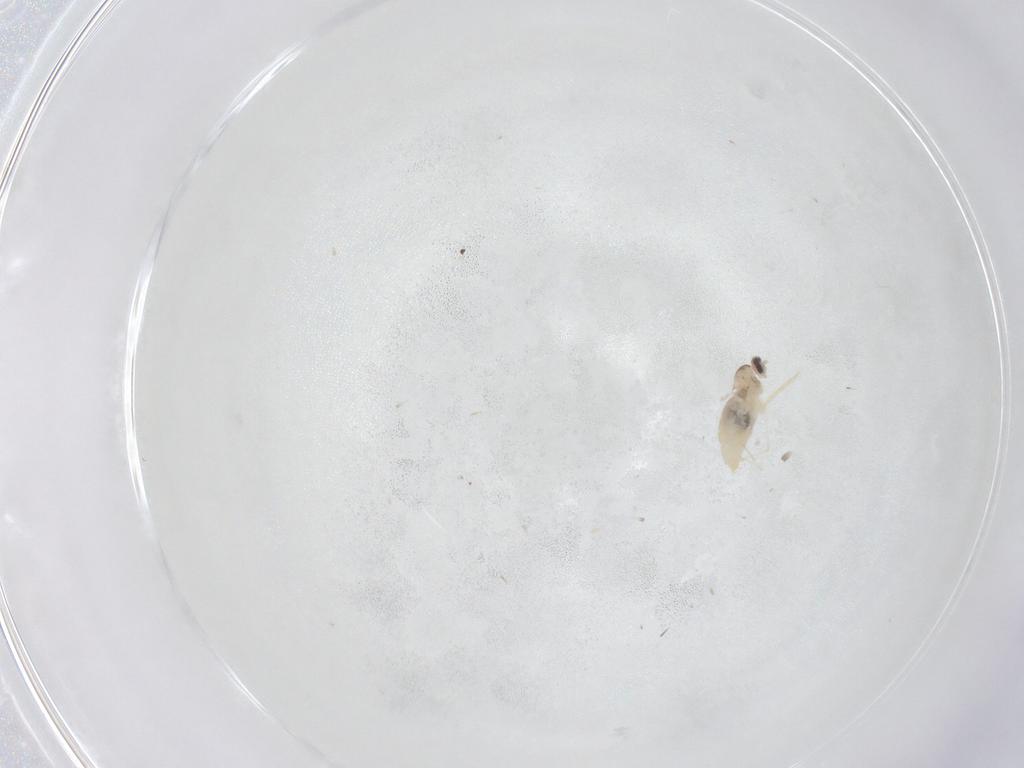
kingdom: Animalia
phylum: Arthropoda
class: Insecta
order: Diptera
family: Cecidomyiidae
